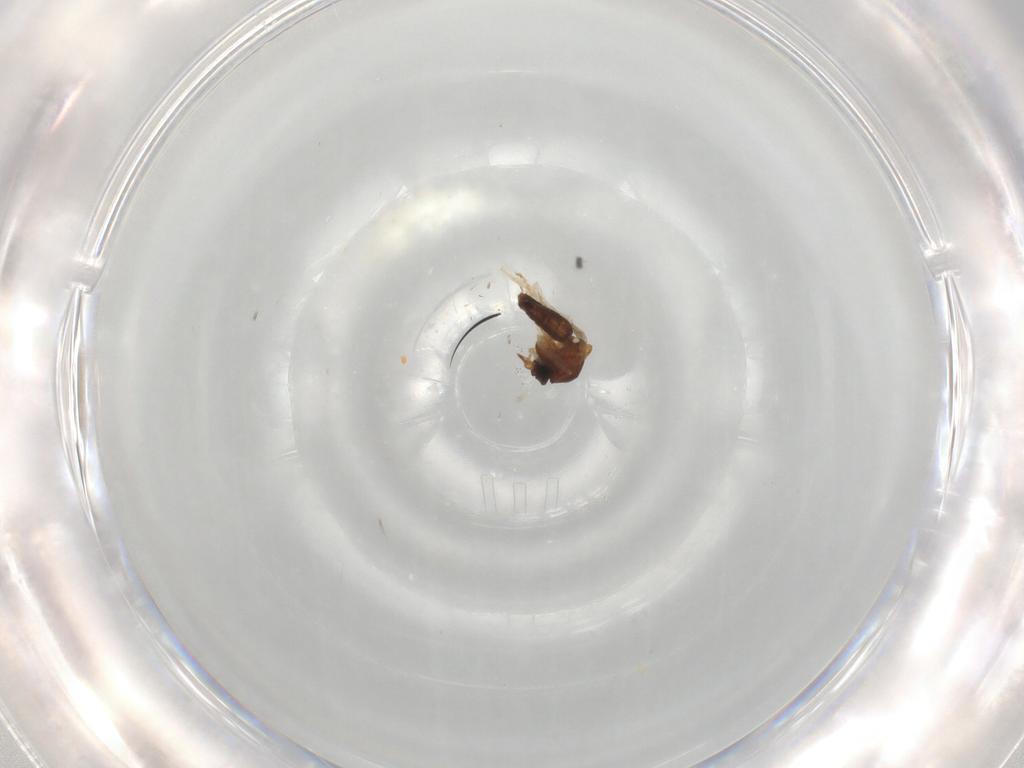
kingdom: Animalia
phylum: Arthropoda
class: Insecta
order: Diptera
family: Ceratopogonidae
